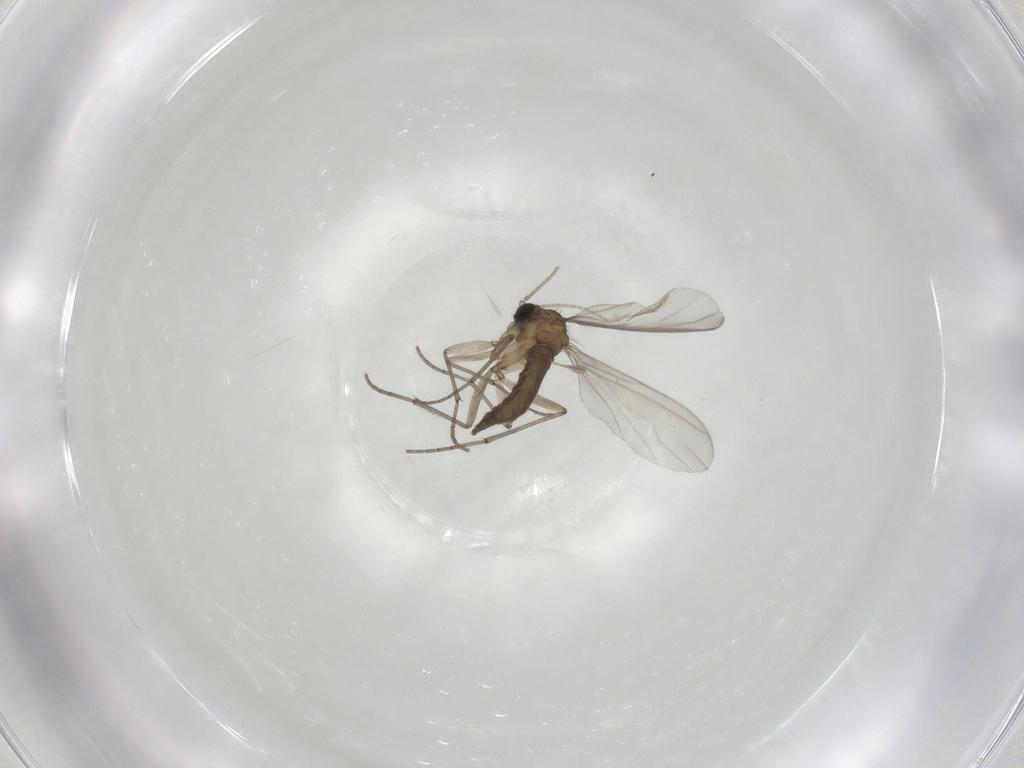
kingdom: Animalia
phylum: Arthropoda
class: Insecta
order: Diptera
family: Sciaridae
